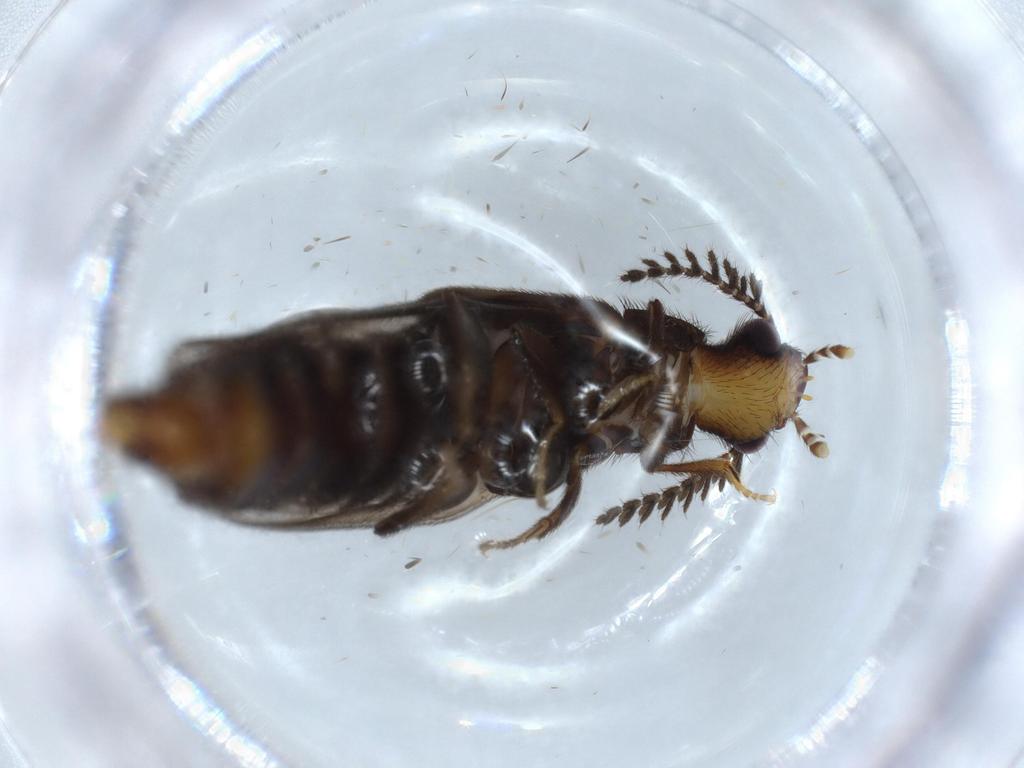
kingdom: Animalia
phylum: Arthropoda
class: Insecta
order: Coleoptera
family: Phengodidae
